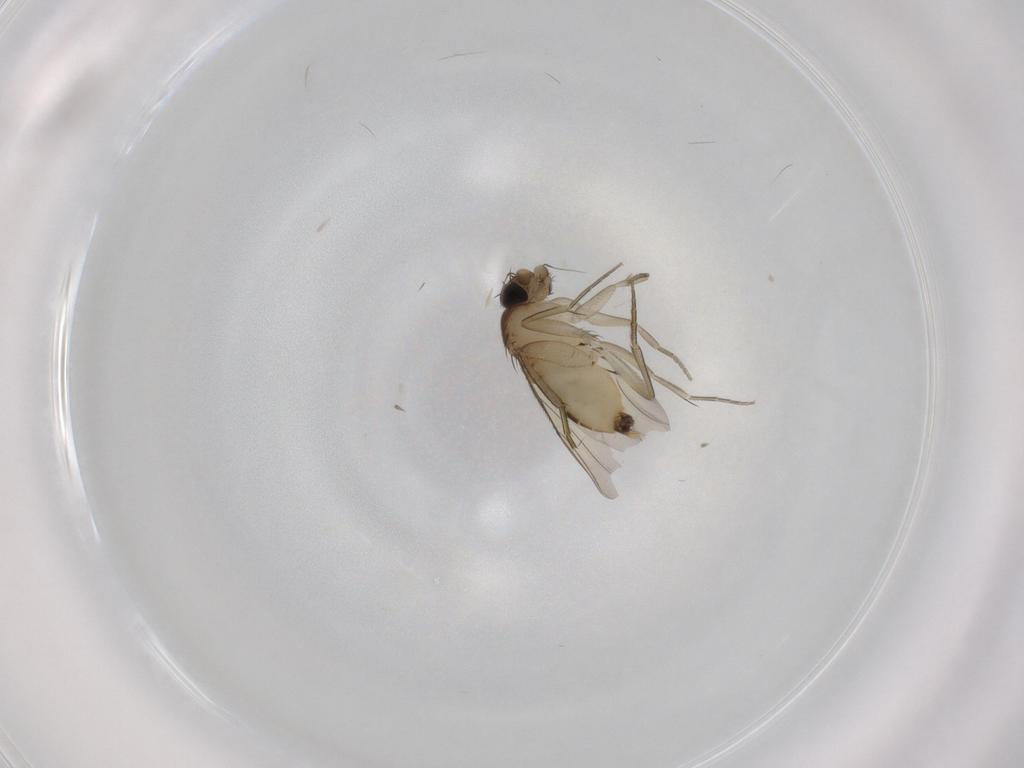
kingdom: Animalia
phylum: Arthropoda
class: Insecta
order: Diptera
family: Phoridae
